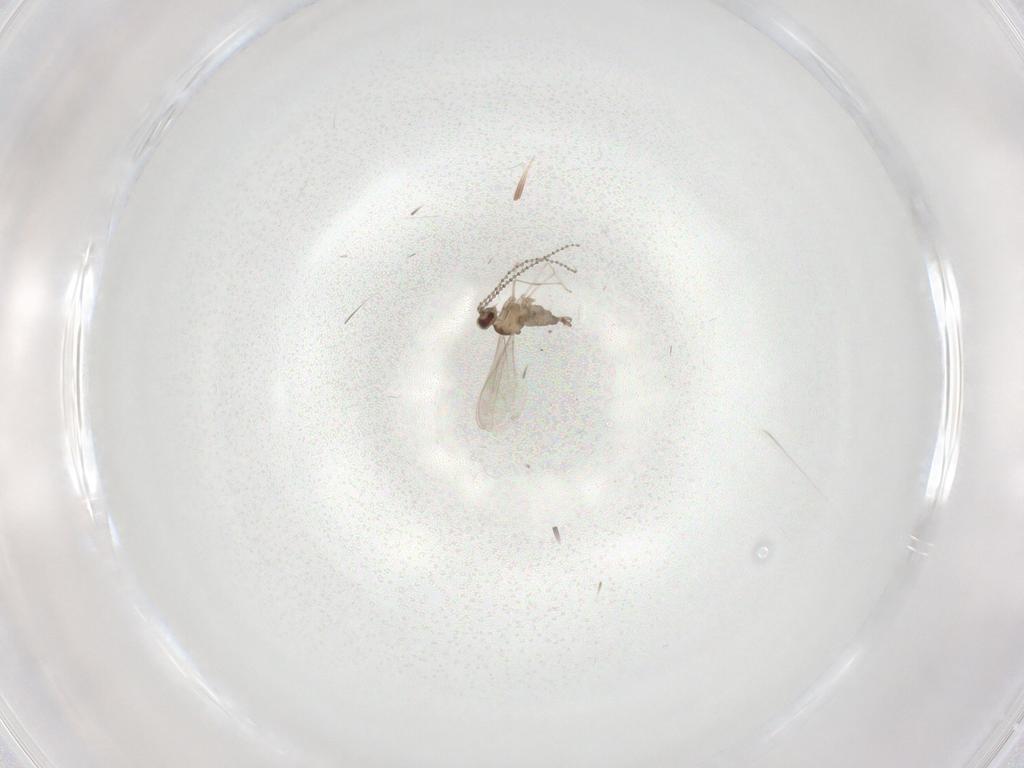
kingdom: Animalia
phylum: Arthropoda
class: Insecta
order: Diptera
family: Cecidomyiidae
